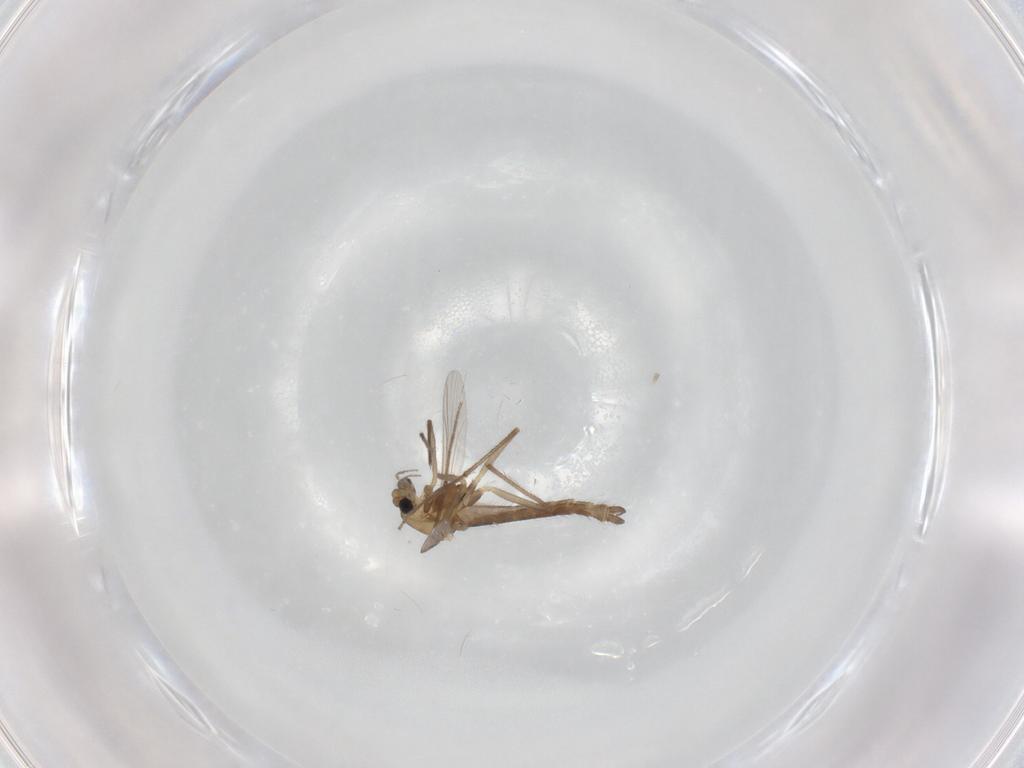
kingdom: Animalia
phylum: Arthropoda
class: Insecta
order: Diptera
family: Chironomidae
